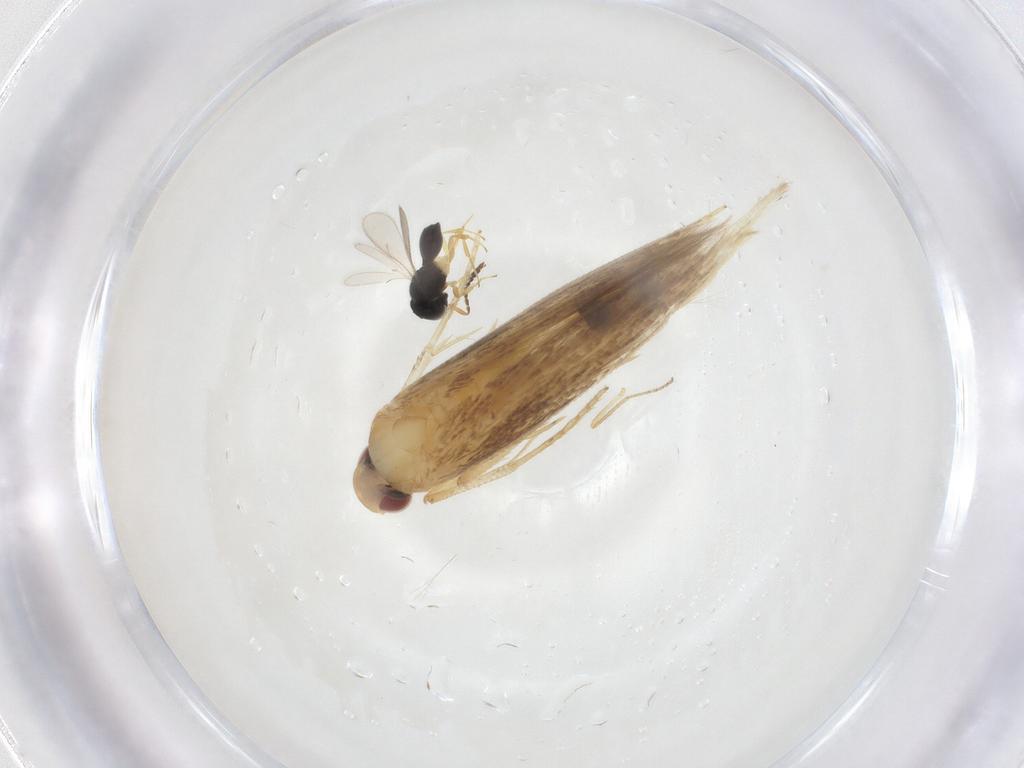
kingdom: Animalia
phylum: Arthropoda
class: Insecta
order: Lepidoptera
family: Cosmopterigidae
